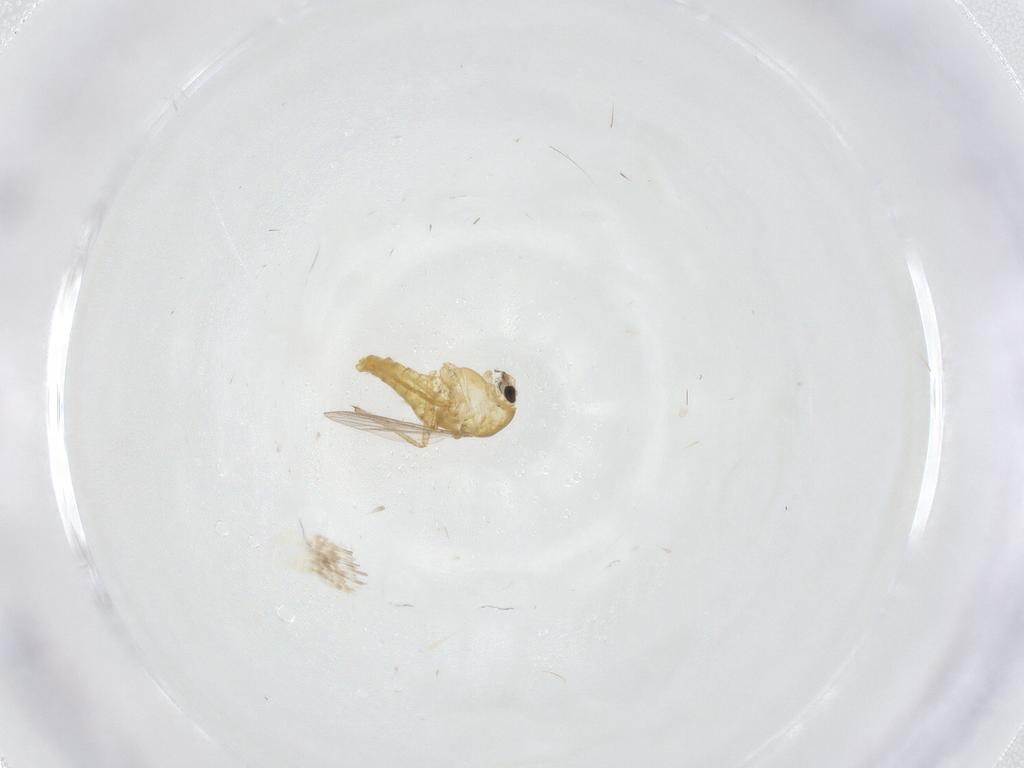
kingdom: Animalia
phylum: Arthropoda
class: Insecta
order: Diptera
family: Chironomidae
